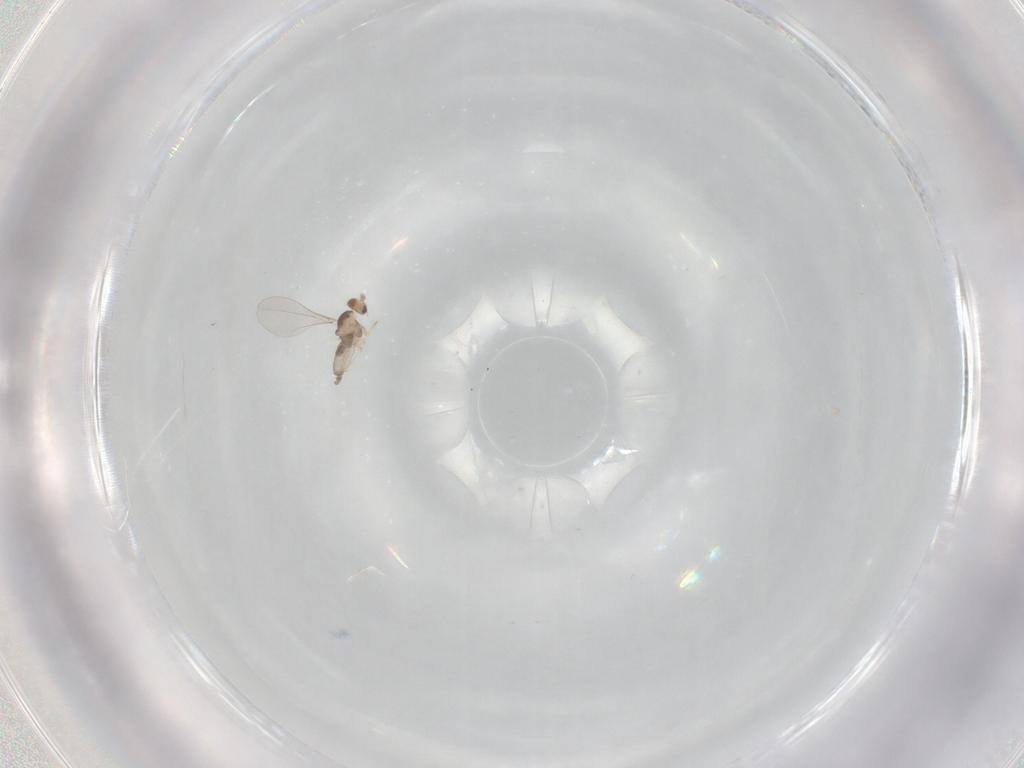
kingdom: Animalia
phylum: Arthropoda
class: Insecta
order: Diptera
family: Cecidomyiidae
